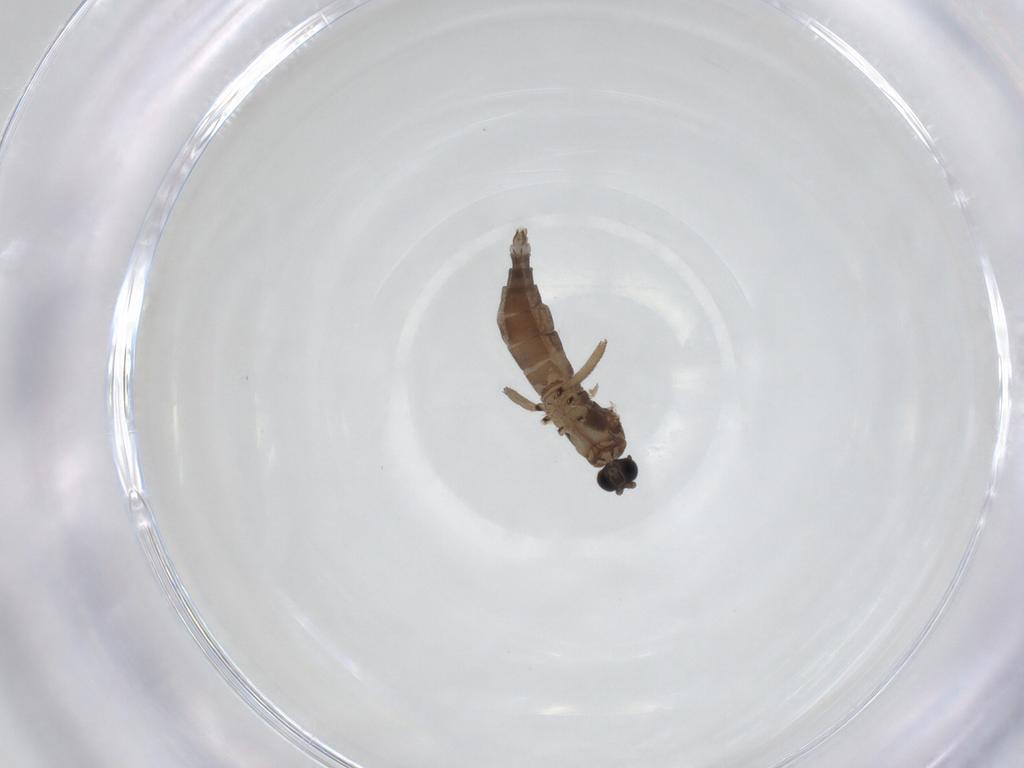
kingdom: Animalia
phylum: Arthropoda
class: Insecta
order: Diptera
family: Sciaridae
